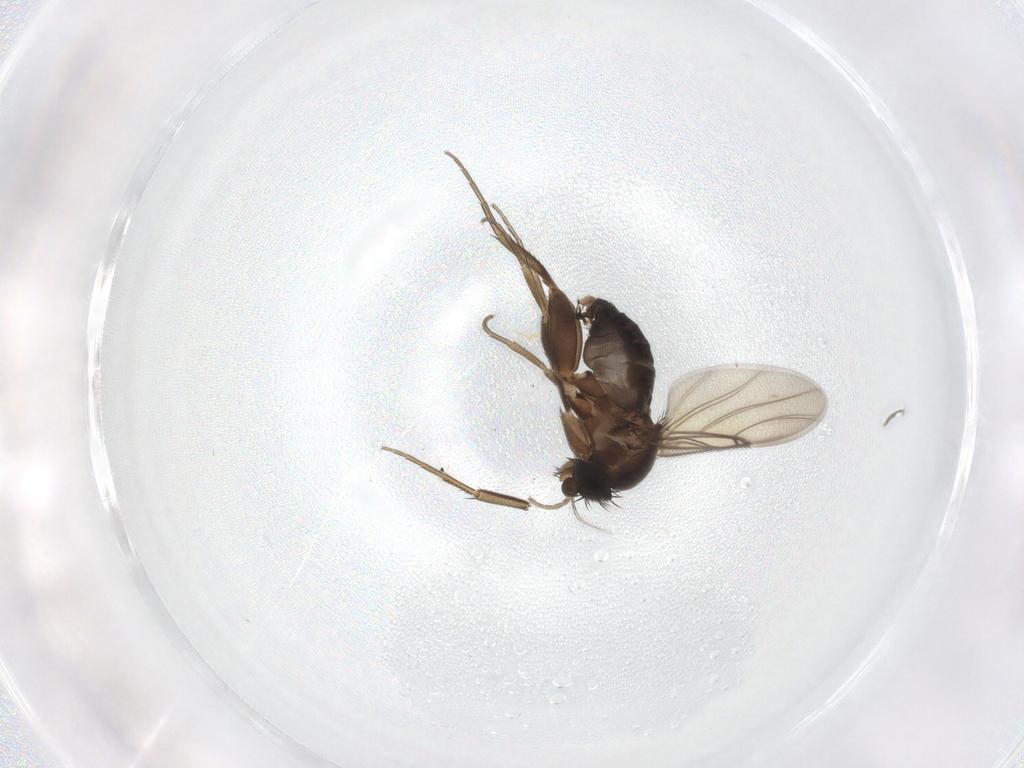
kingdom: Animalia
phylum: Arthropoda
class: Insecta
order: Diptera
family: Phoridae
